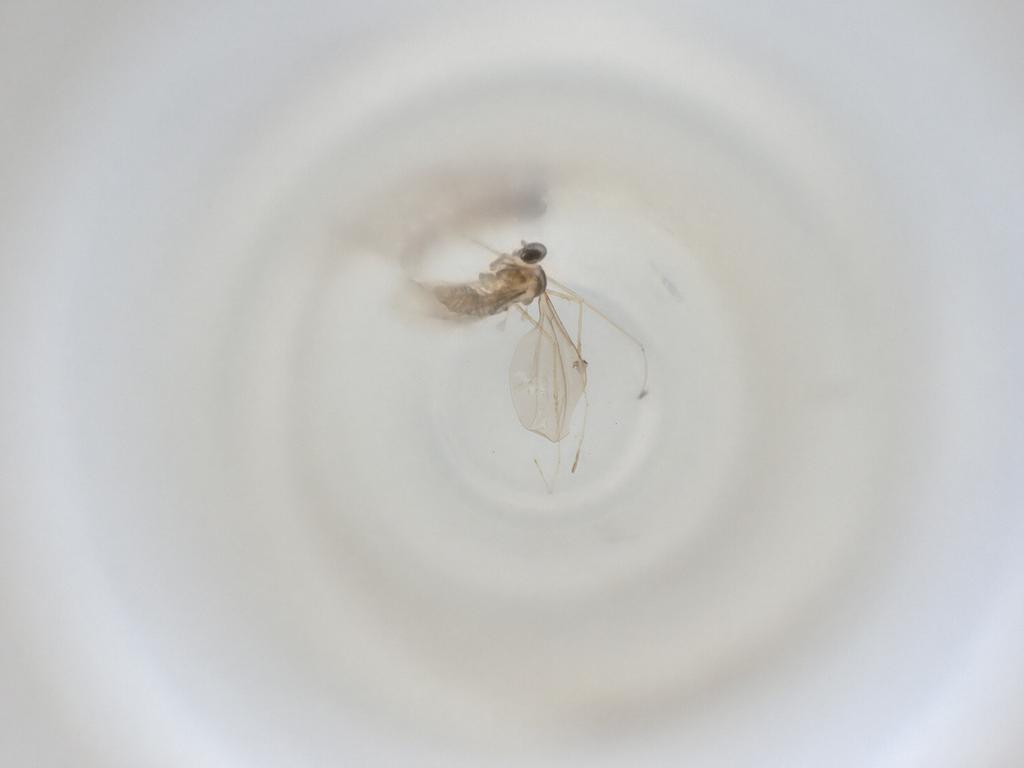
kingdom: Animalia
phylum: Arthropoda
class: Insecta
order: Diptera
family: Cecidomyiidae
